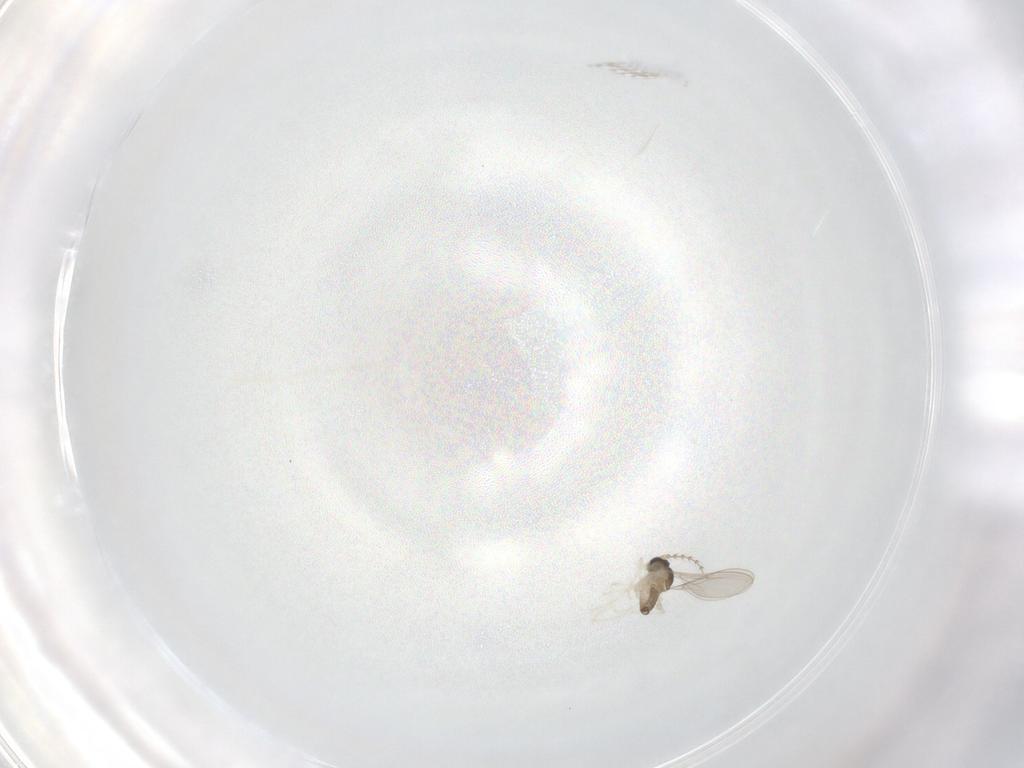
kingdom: Animalia
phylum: Arthropoda
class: Insecta
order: Diptera
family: Cecidomyiidae
